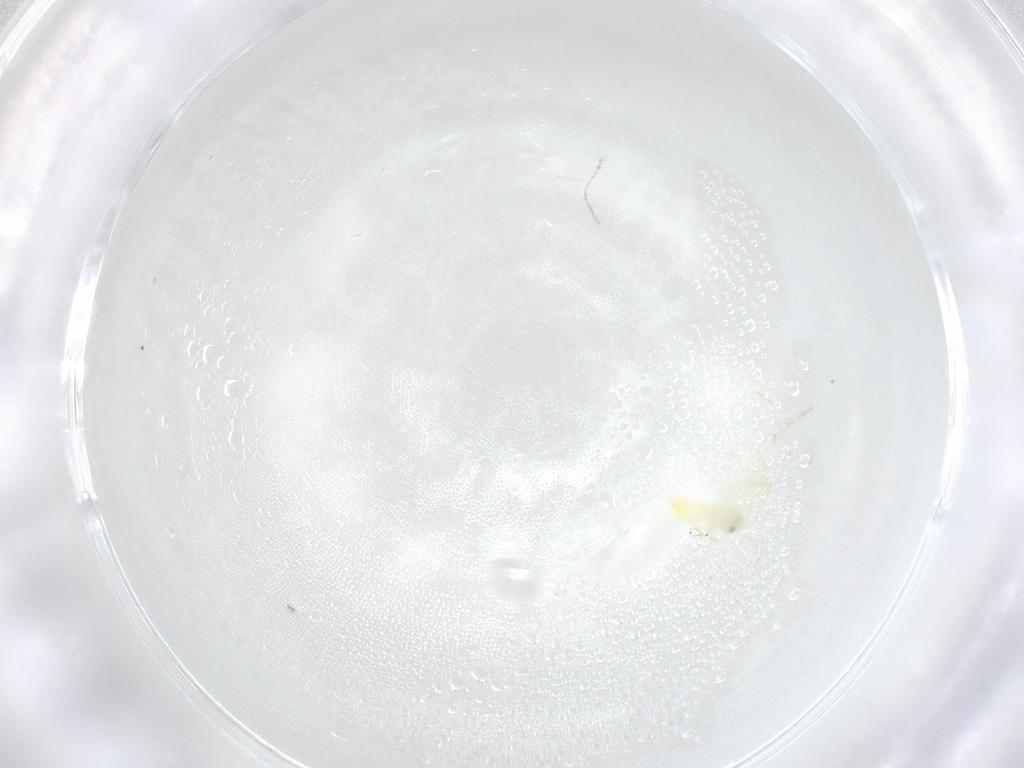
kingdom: Animalia
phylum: Arthropoda
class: Insecta
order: Hemiptera
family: Aleyrodidae
